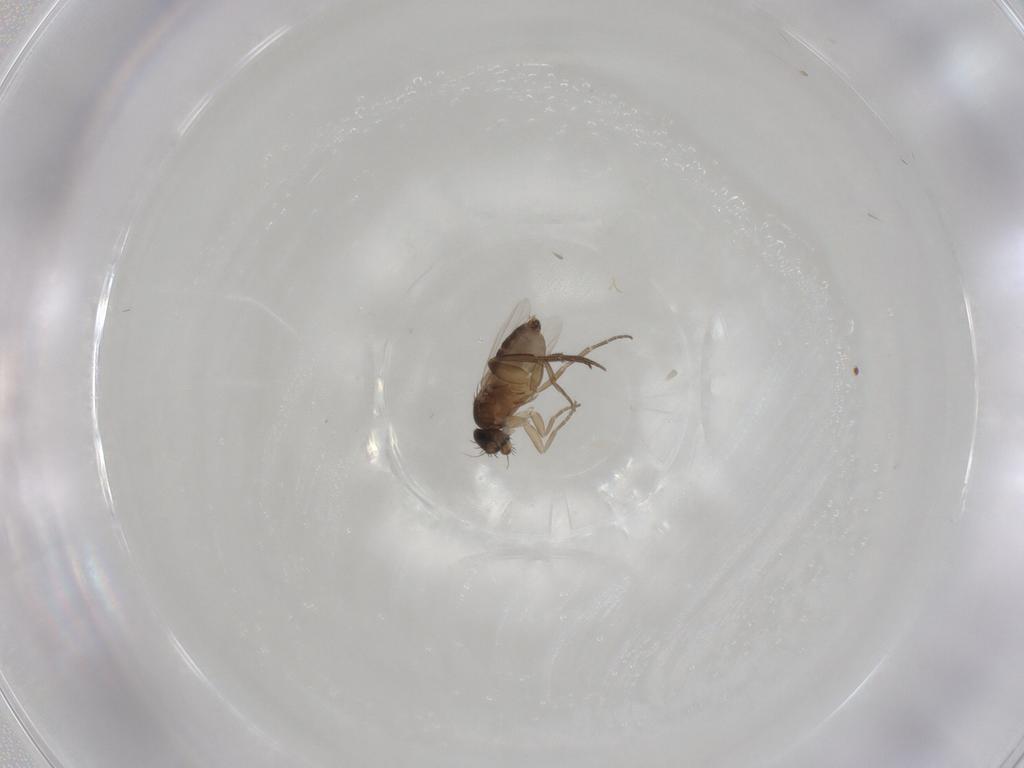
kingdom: Animalia
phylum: Arthropoda
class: Insecta
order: Diptera
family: Phoridae
